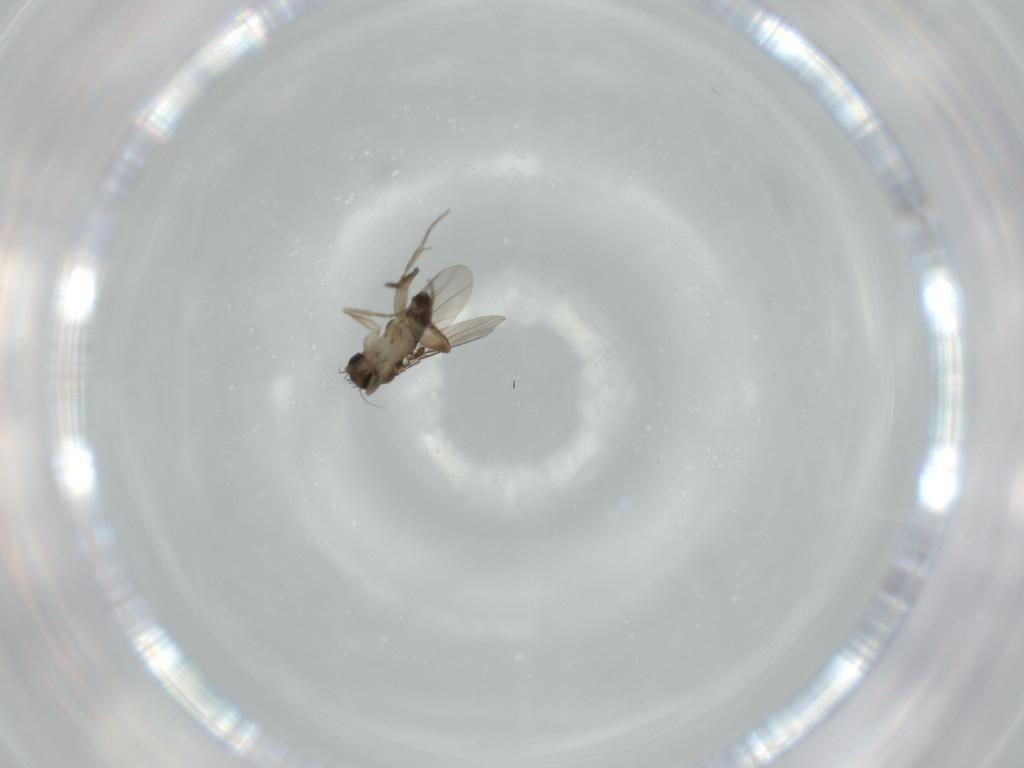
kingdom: Animalia
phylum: Arthropoda
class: Insecta
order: Diptera
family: Phoridae
